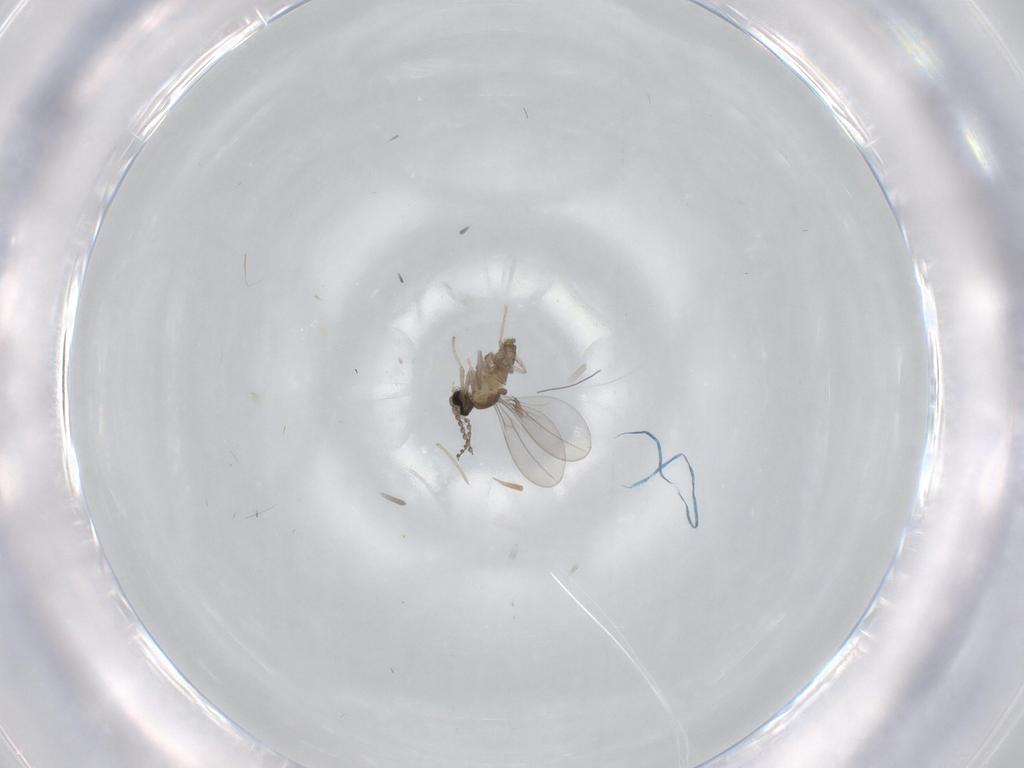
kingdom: Animalia
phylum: Arthropoda
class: Insecta
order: Diptera
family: Cecidomyiidae
